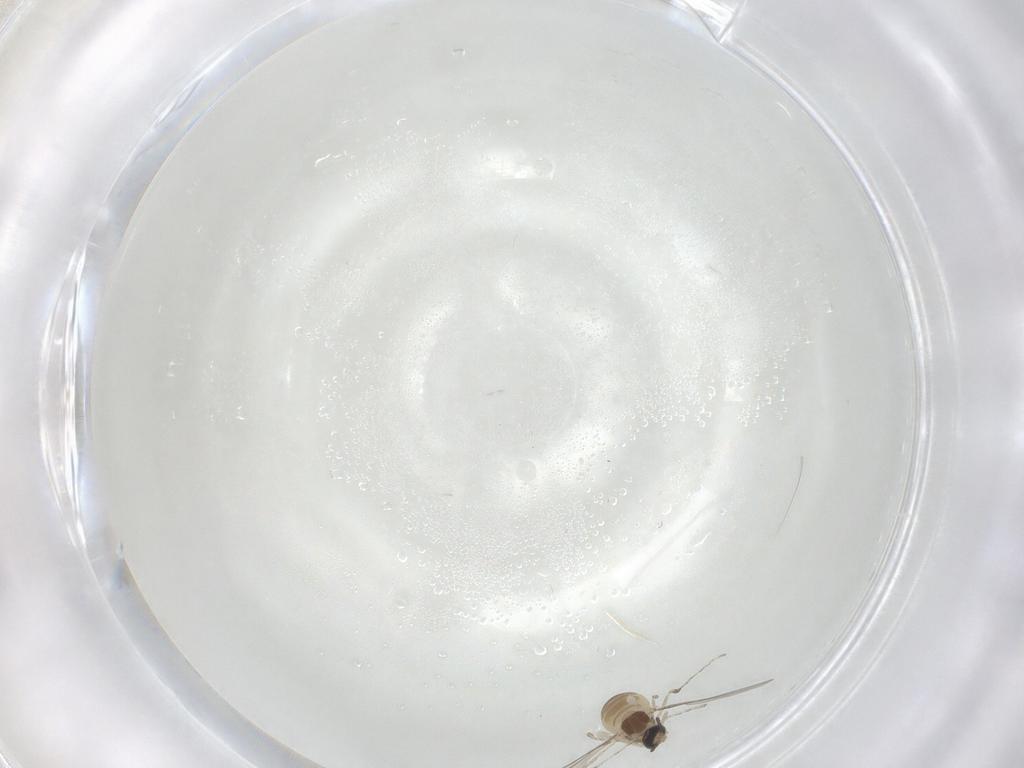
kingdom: Animalia
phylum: Arthropoda
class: Insecta
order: Diptera
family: Cecidomyiidae
